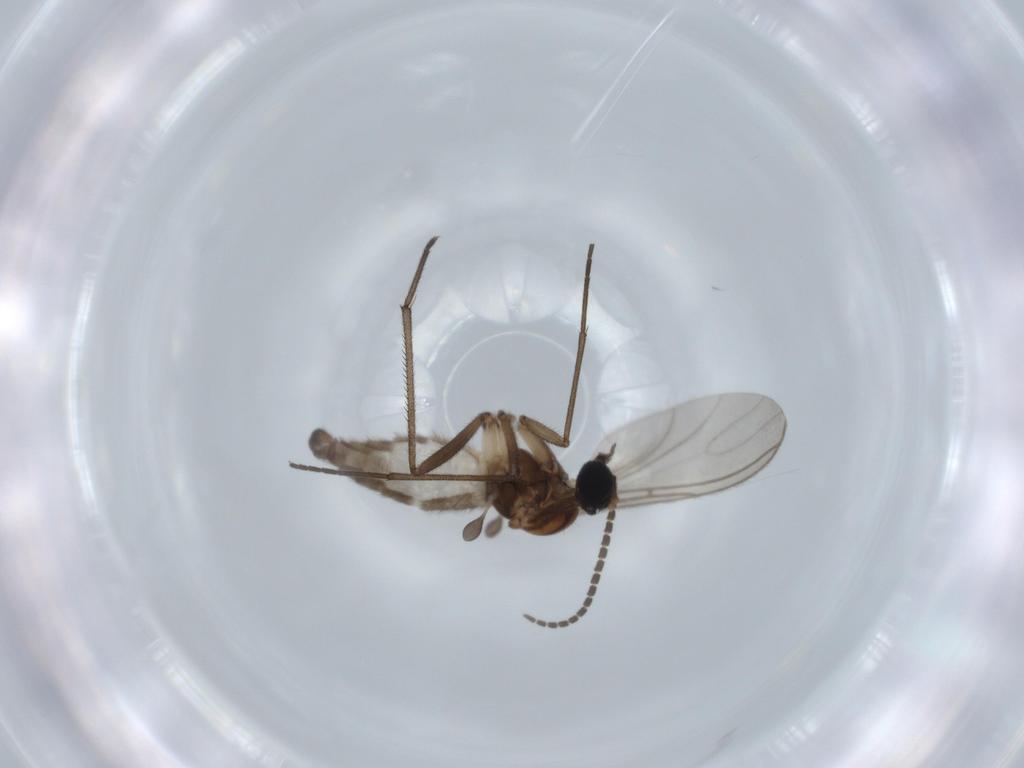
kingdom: Animalia
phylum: Arthropoda
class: Insecta
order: Diptera
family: Sciaridae
